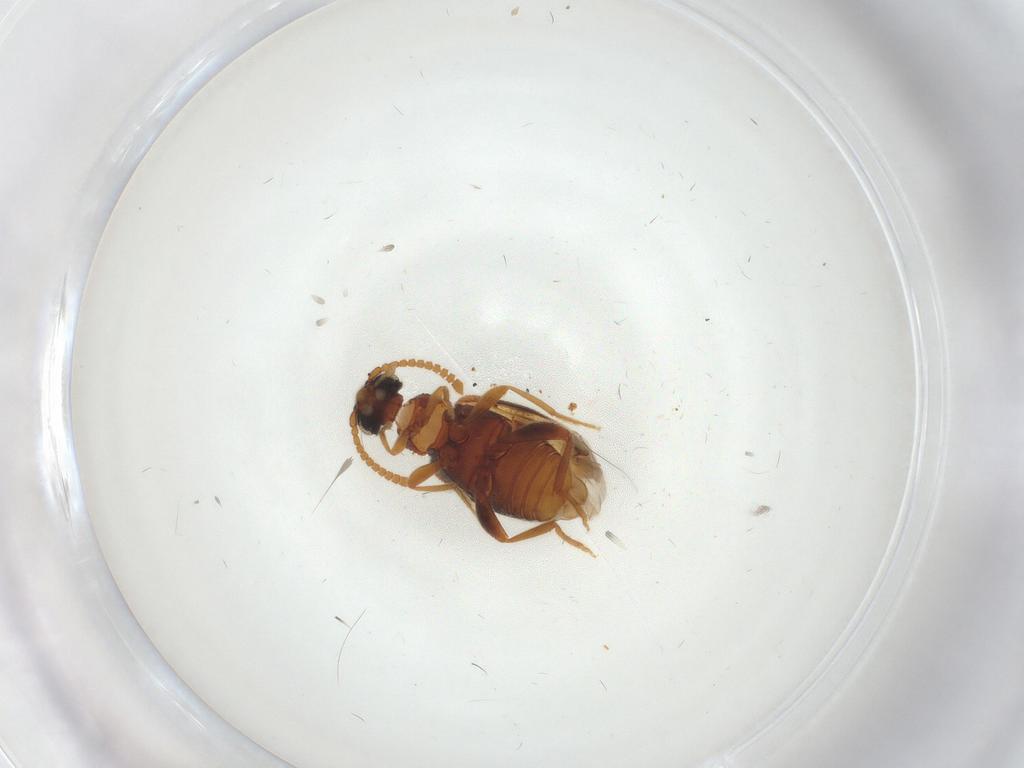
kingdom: Animalia
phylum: Arthropoda
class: Insecta
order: Coleoptera
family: Aderidae
